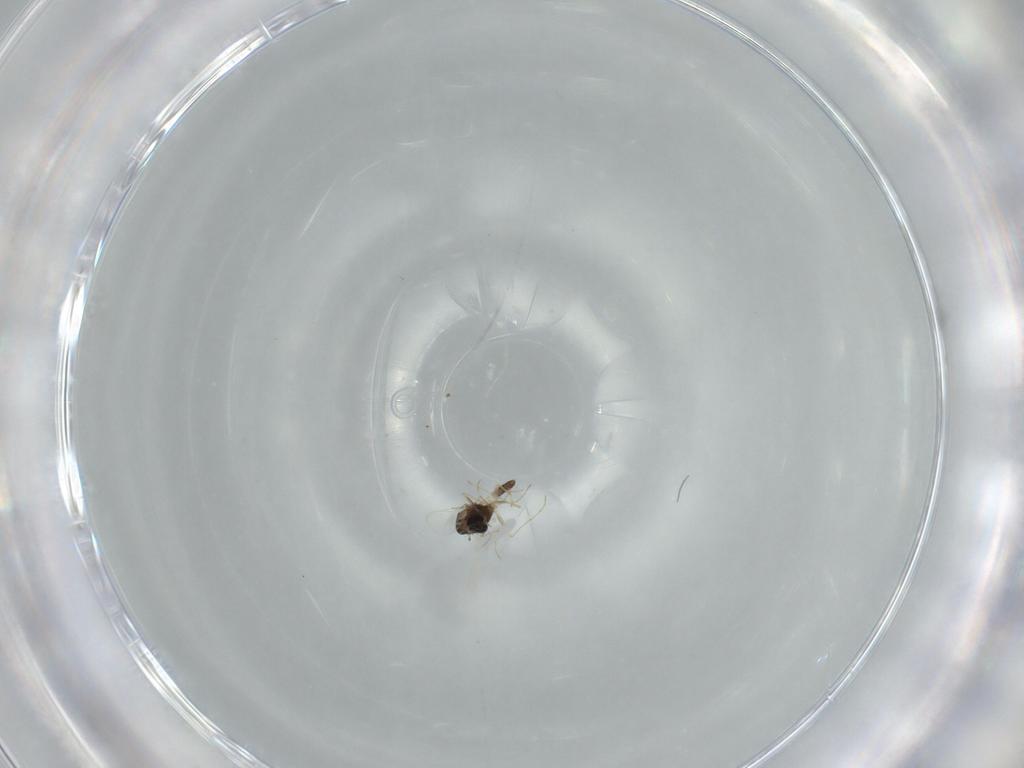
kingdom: Animalia
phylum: Arthropoda
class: Insecta
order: Diptera
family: Chironomidae
